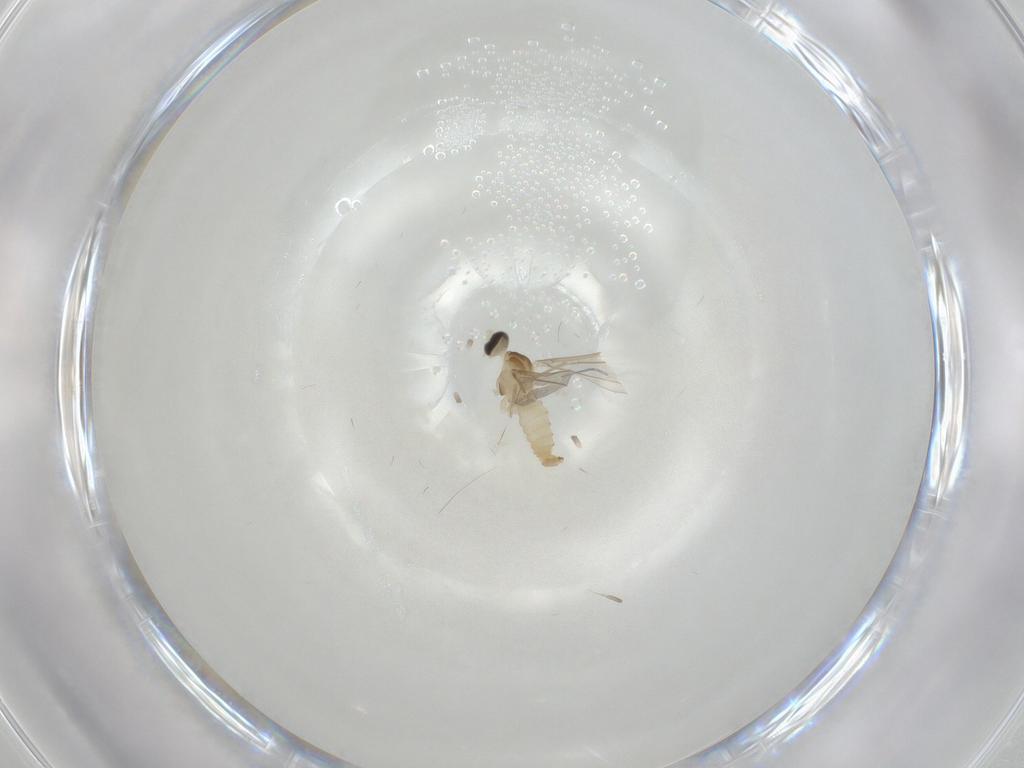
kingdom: Animalia
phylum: Arthropoda
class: Insecta
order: Diptera
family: Cecidomyiidae
